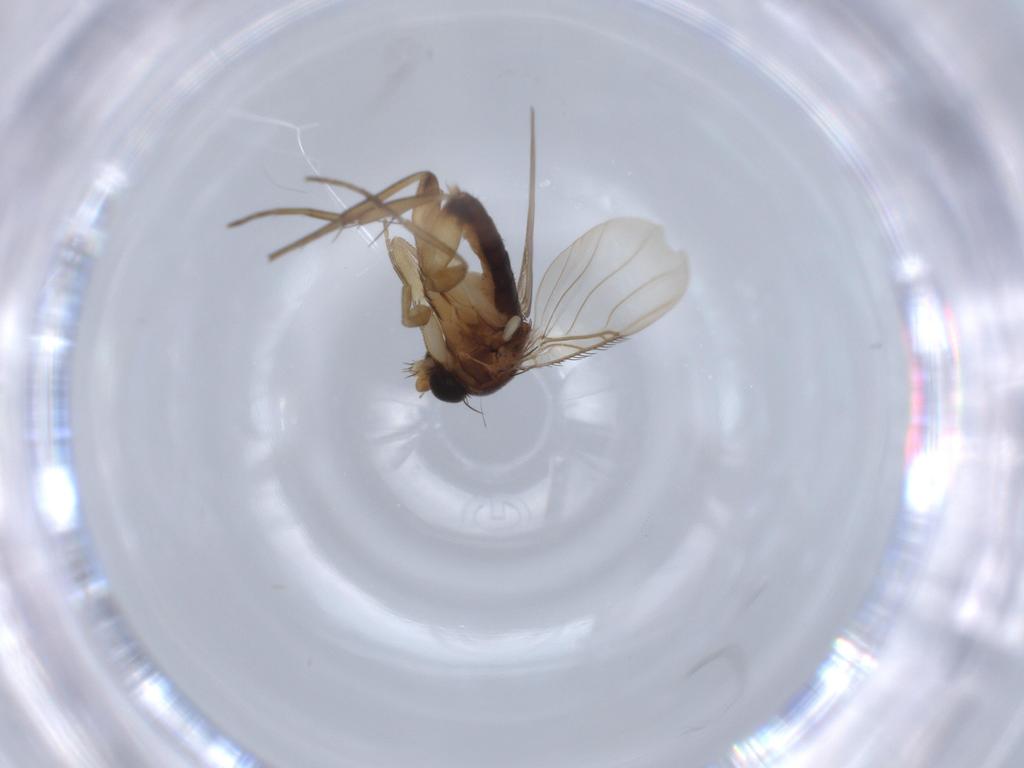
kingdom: Animalia
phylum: Arthropoda
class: Insecta
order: Diptera
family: Phoridae
